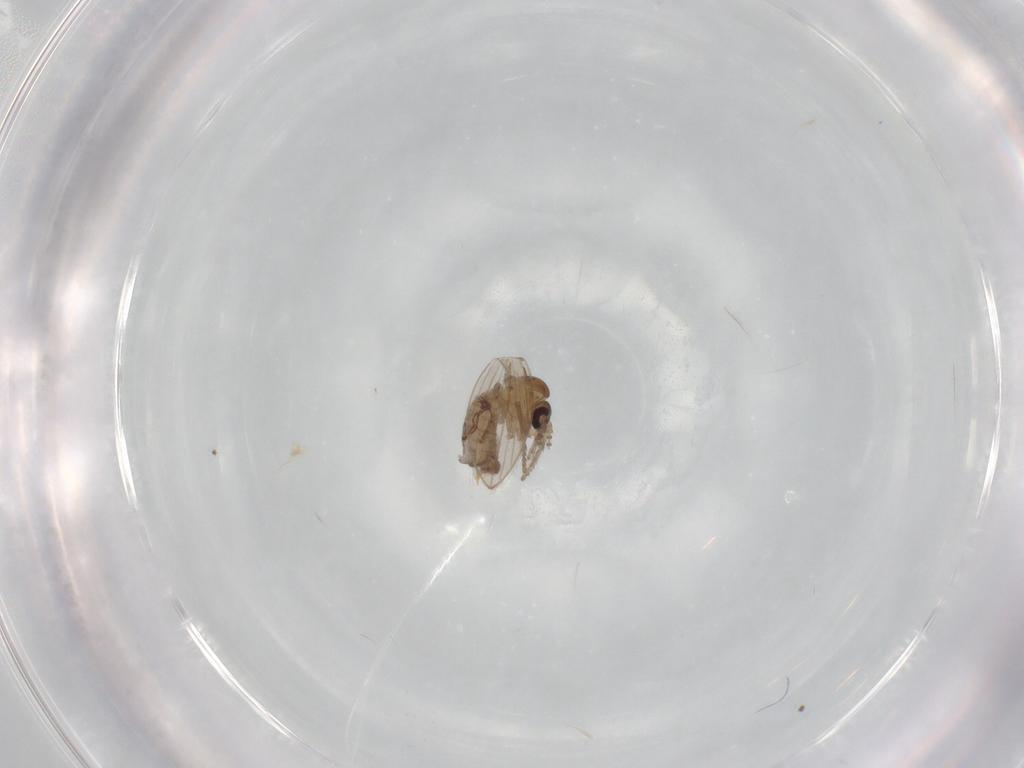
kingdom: Animalia
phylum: Arthropoda
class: Insecta
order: Diptera
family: Psychodidae
